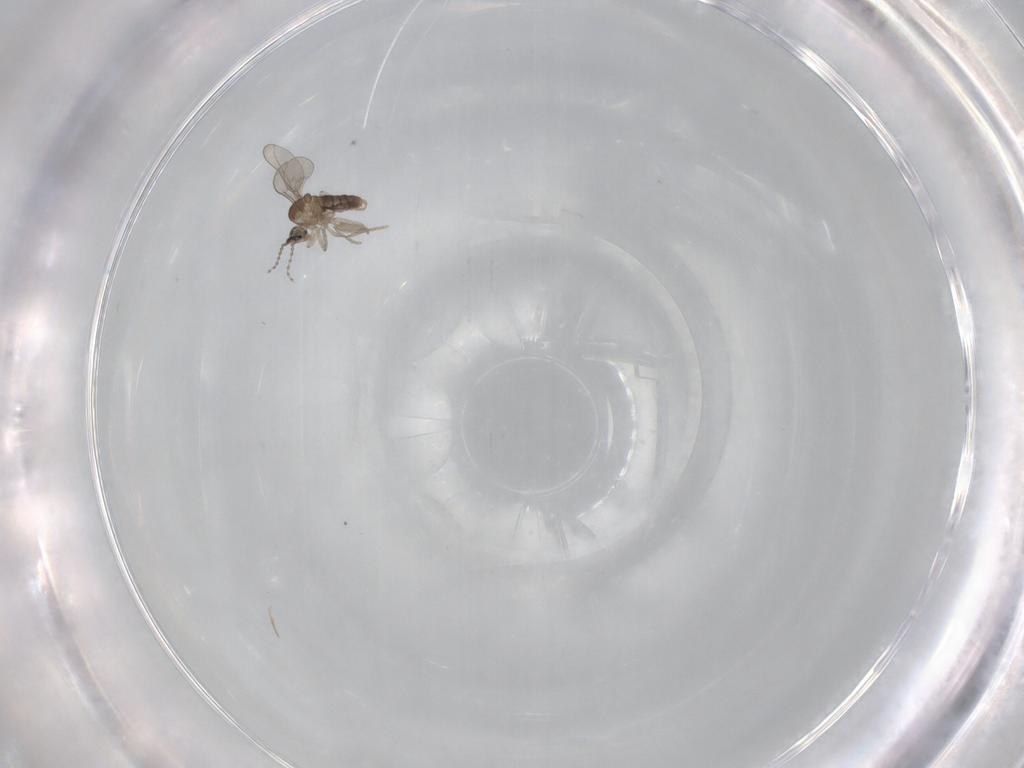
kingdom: Animalia
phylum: Arthropoda
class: Insecta
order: Diptera
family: Cecidomyiidae
